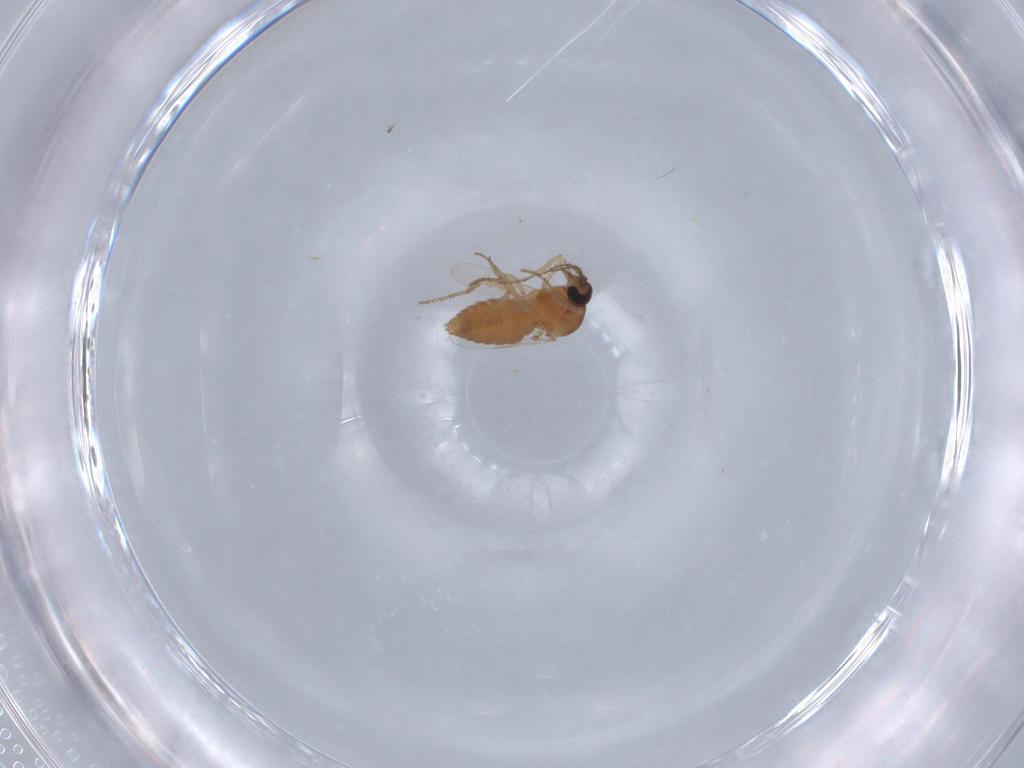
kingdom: Animalia
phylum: Arthropoda
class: Insecta
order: Diptera
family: Ceratopogonidae
